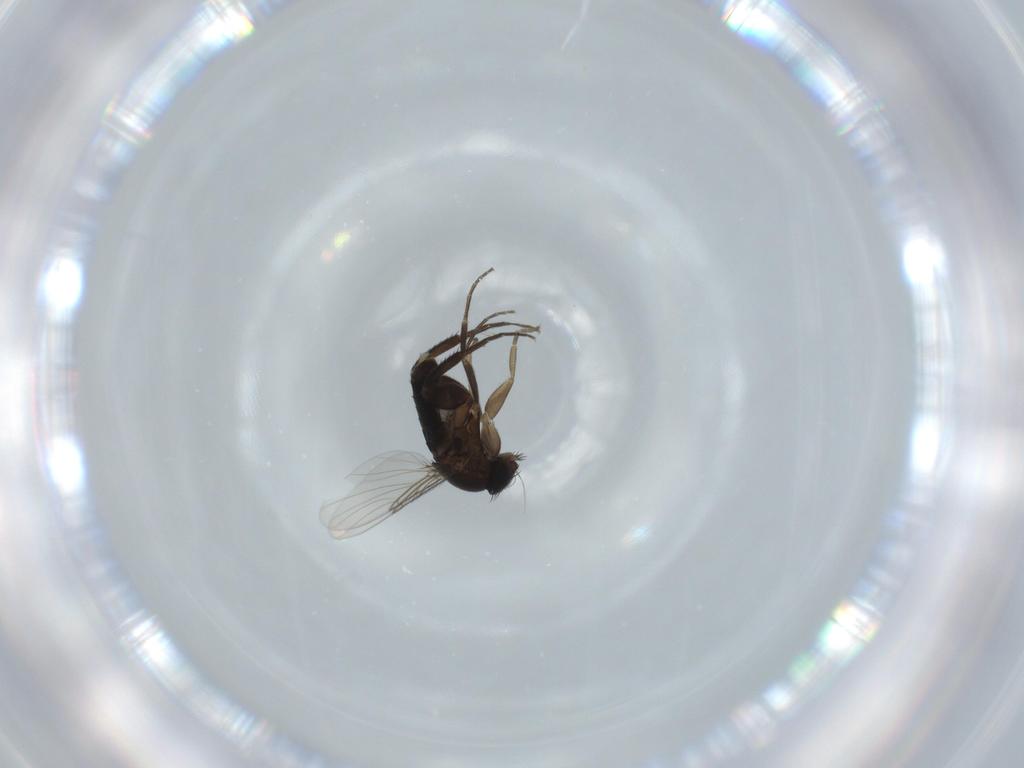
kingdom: Animalia
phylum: Arthropoda
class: Insecta
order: Diptera
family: Phoridae
